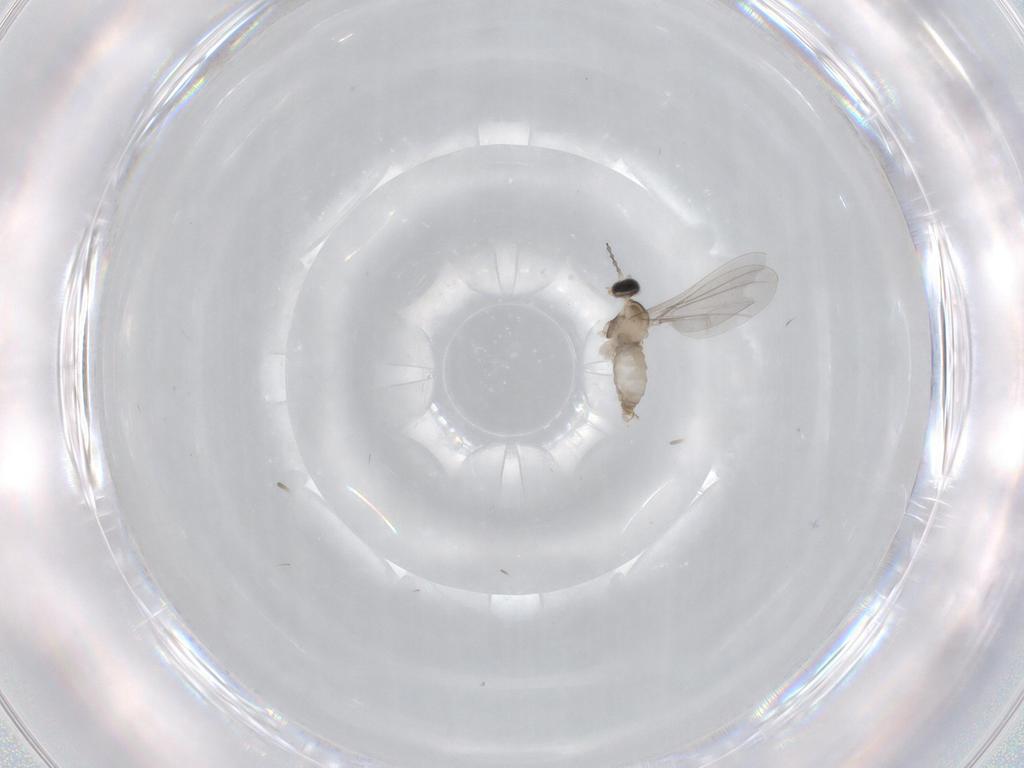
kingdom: Animalia
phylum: Arthropoda
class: Insecta
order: Diptera
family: Cecidomyiidae
